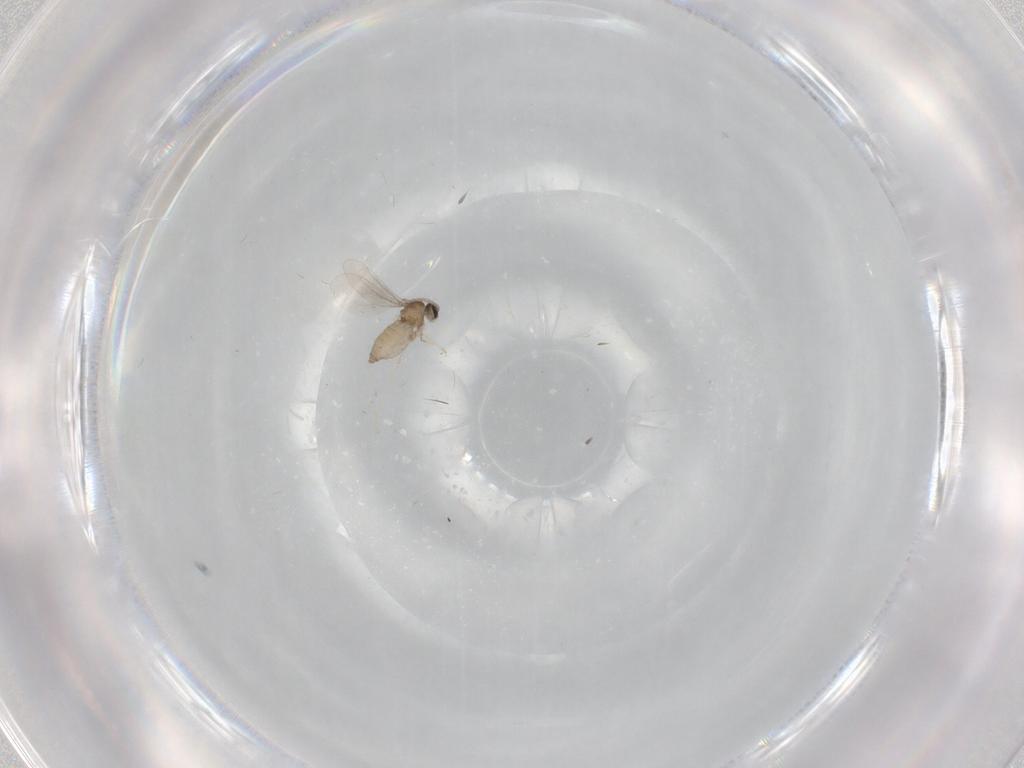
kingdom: Animalia
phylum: Arthropoda
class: Insecta
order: Diptera
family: Cecidomyiidae
